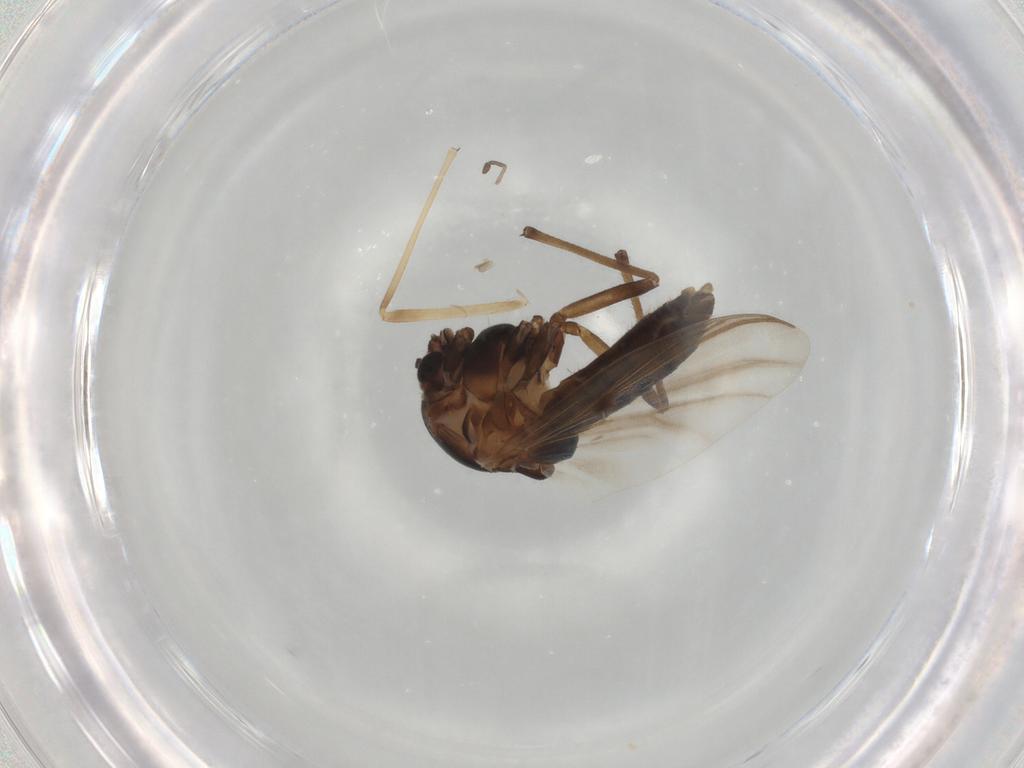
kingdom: Animalia
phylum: Arthropoda
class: Insecta
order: Diptera
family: Chironomidae
